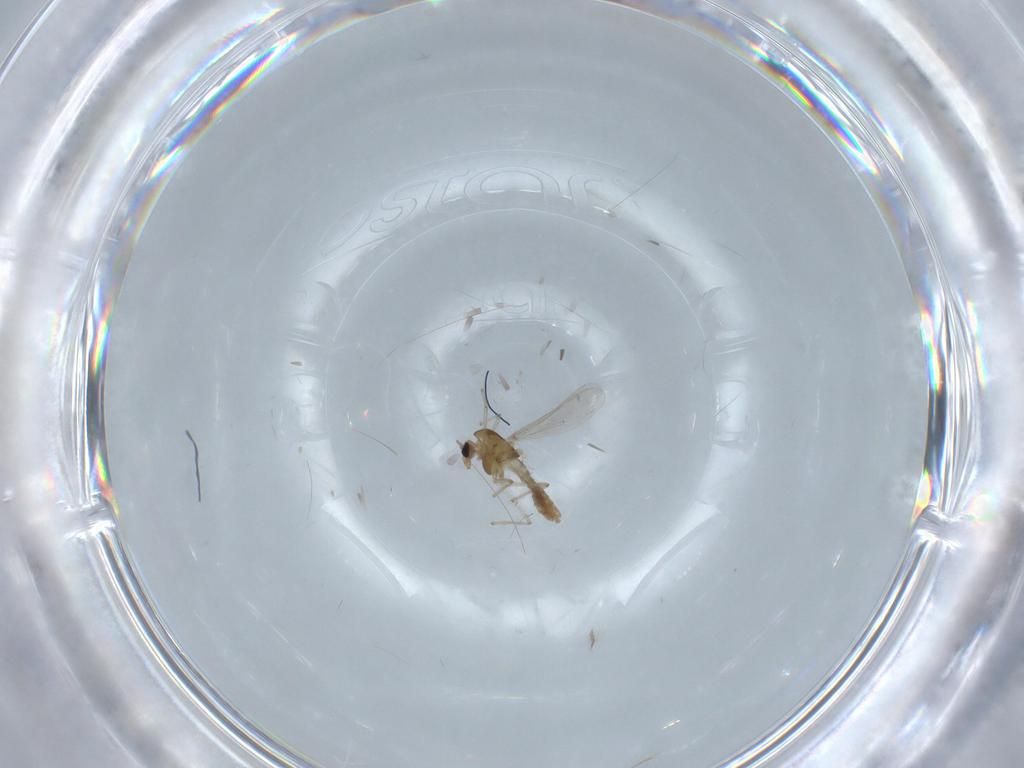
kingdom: Animalia
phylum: Arthropoda
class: Insecta
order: Diptera
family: Chironomidae
